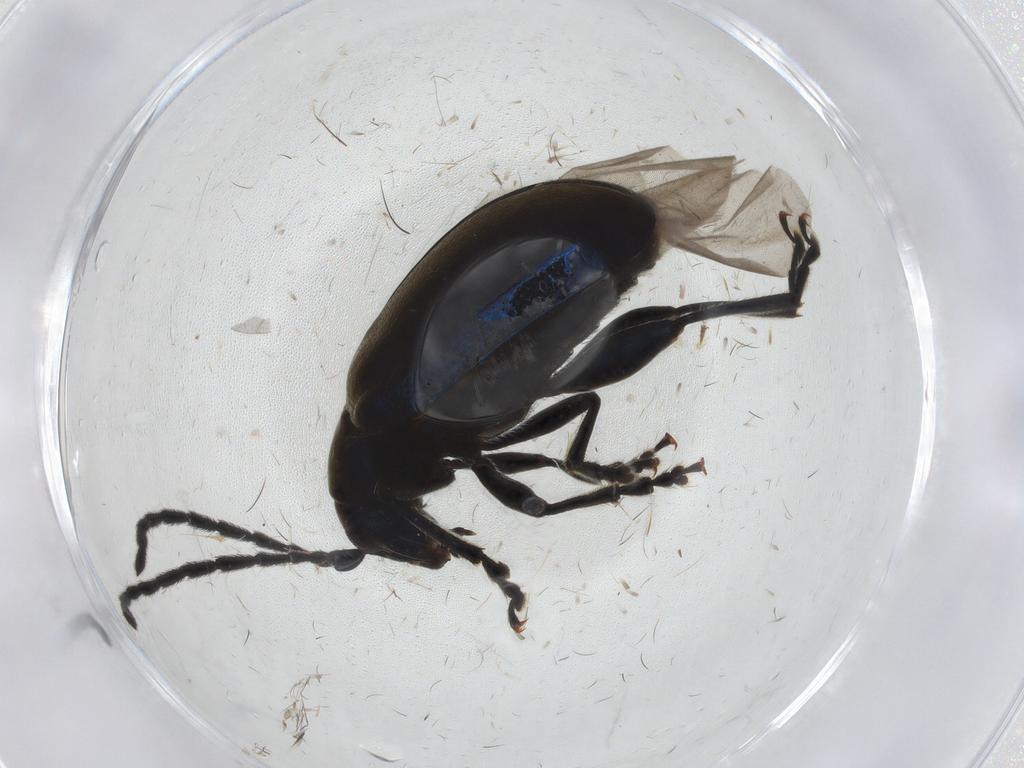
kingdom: Animalia
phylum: Arthropoda
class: Insecta
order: Coleoptera
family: Chrysomelidae
